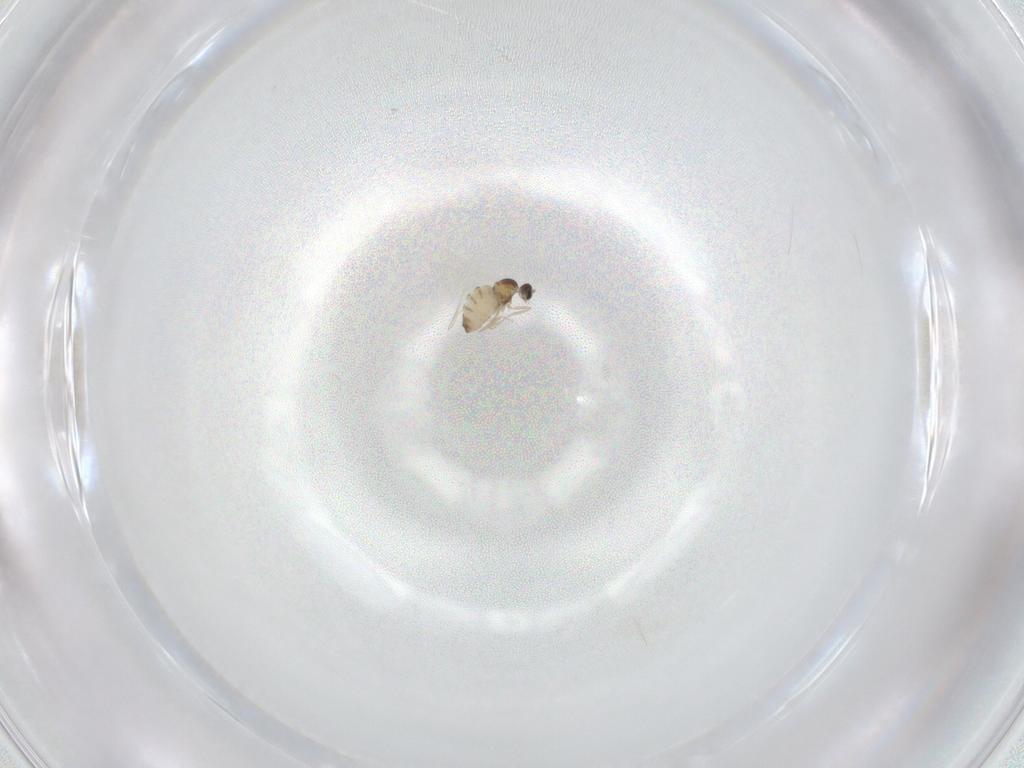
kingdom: Animalia
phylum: Arthropoda
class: Insecta
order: Diptera
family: Cecidomyiidae
